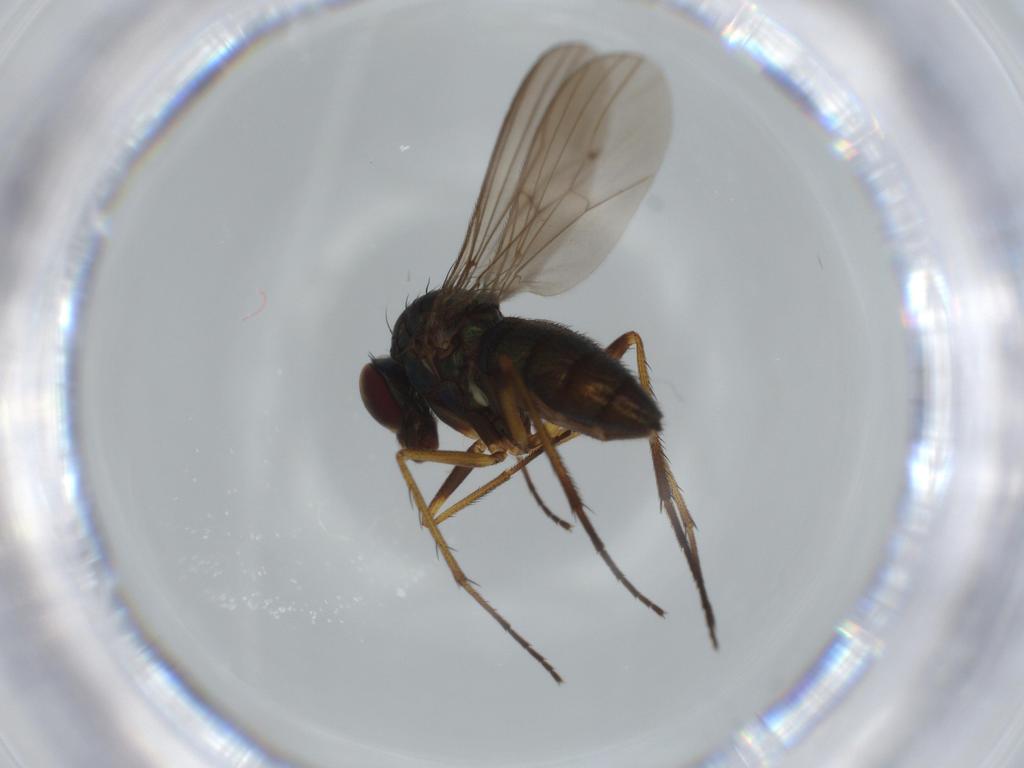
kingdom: Animalia
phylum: Arthropoda
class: Insecta
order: Diptera
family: Dolichopodidae
